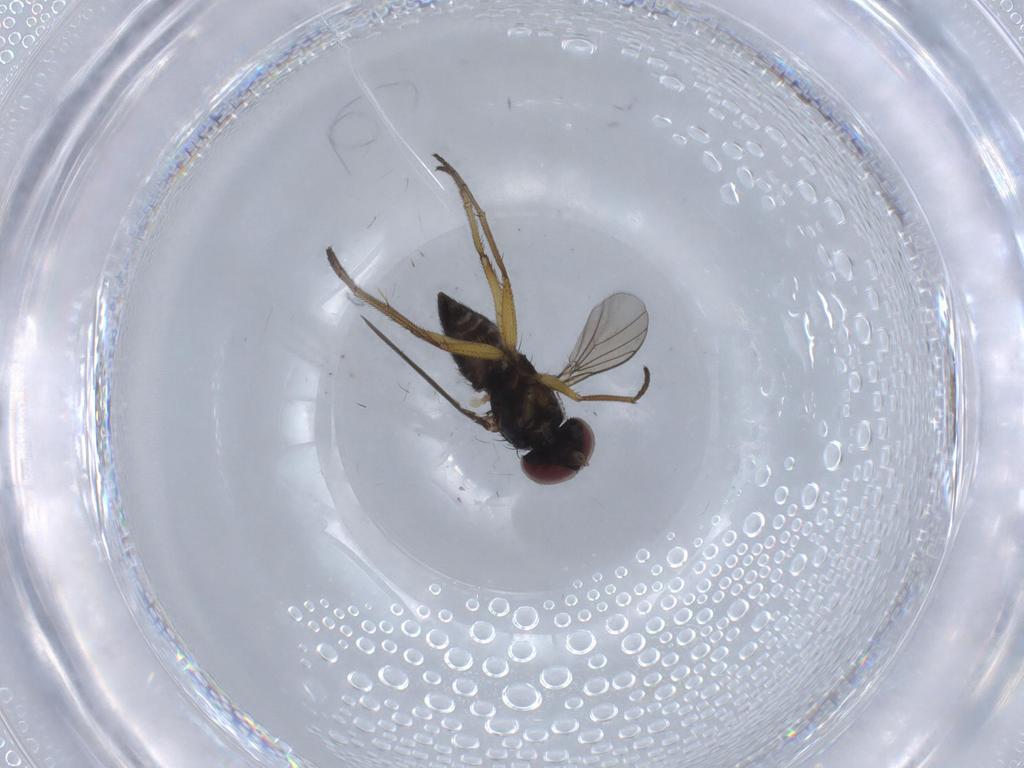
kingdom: Animalia
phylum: Arthropoda
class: Insecta
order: Diptera
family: Dolichopodidae
